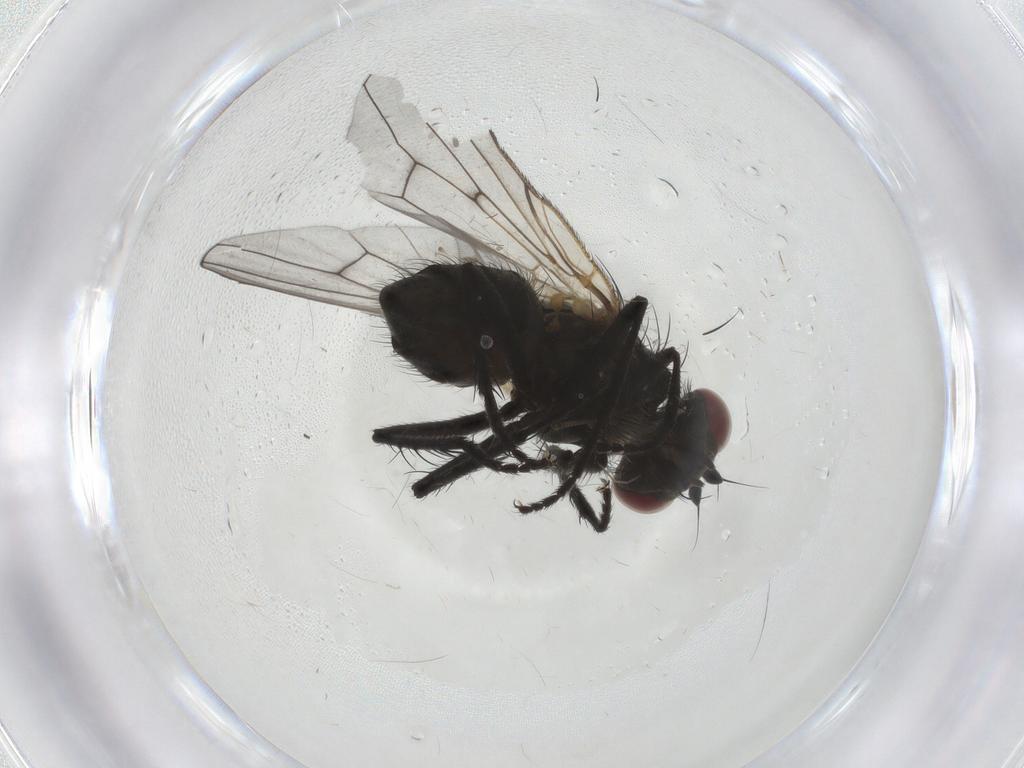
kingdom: Animalia
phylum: Arthropoda
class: Insecta
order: Diptera
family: Muscidae
